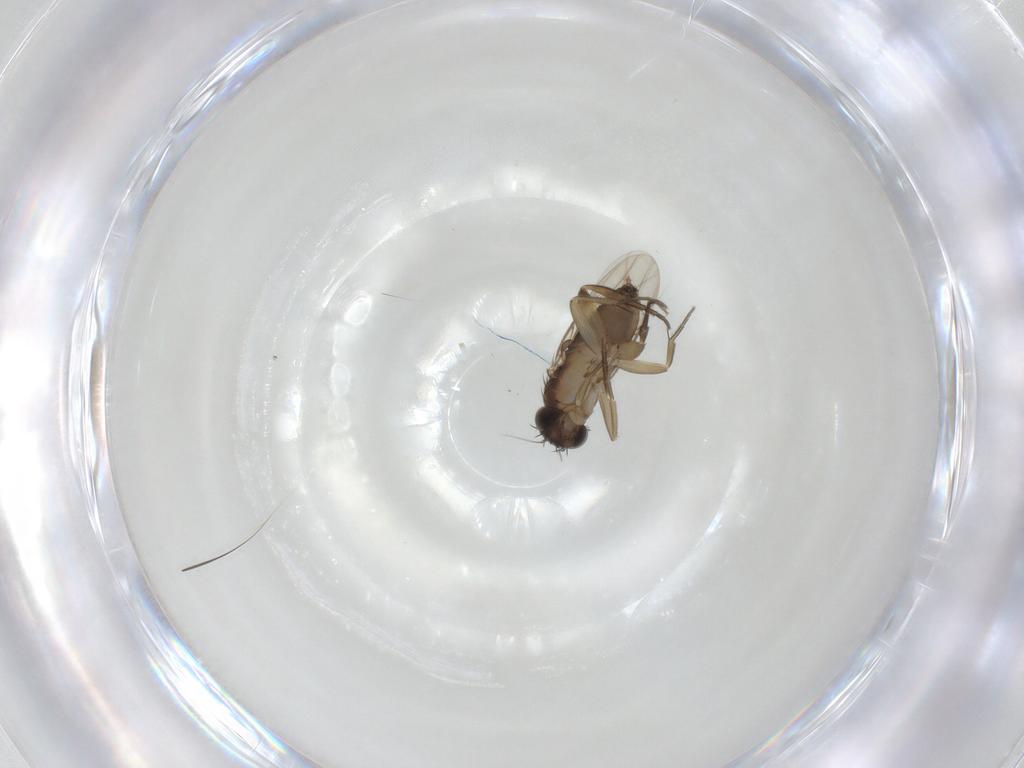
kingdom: Animalia
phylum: Arthropoda
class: Insecta
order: Diptera
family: Phoridae
